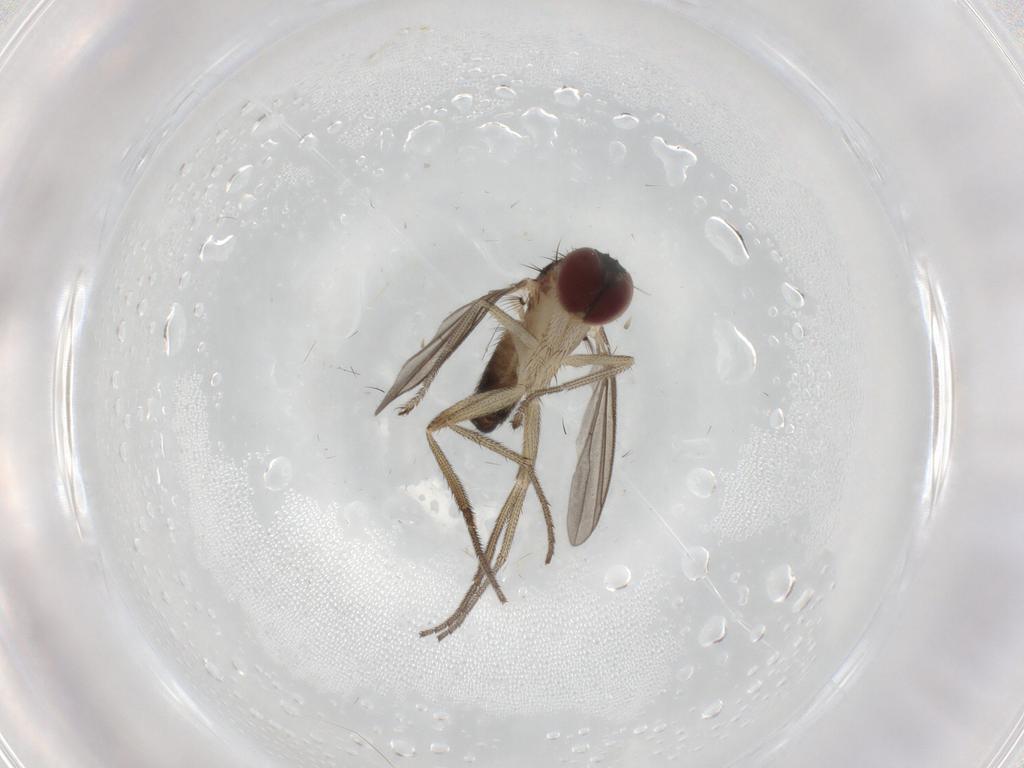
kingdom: Animalia
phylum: Arthropoda
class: Insecta
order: Diptera
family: Dolichopodidae
